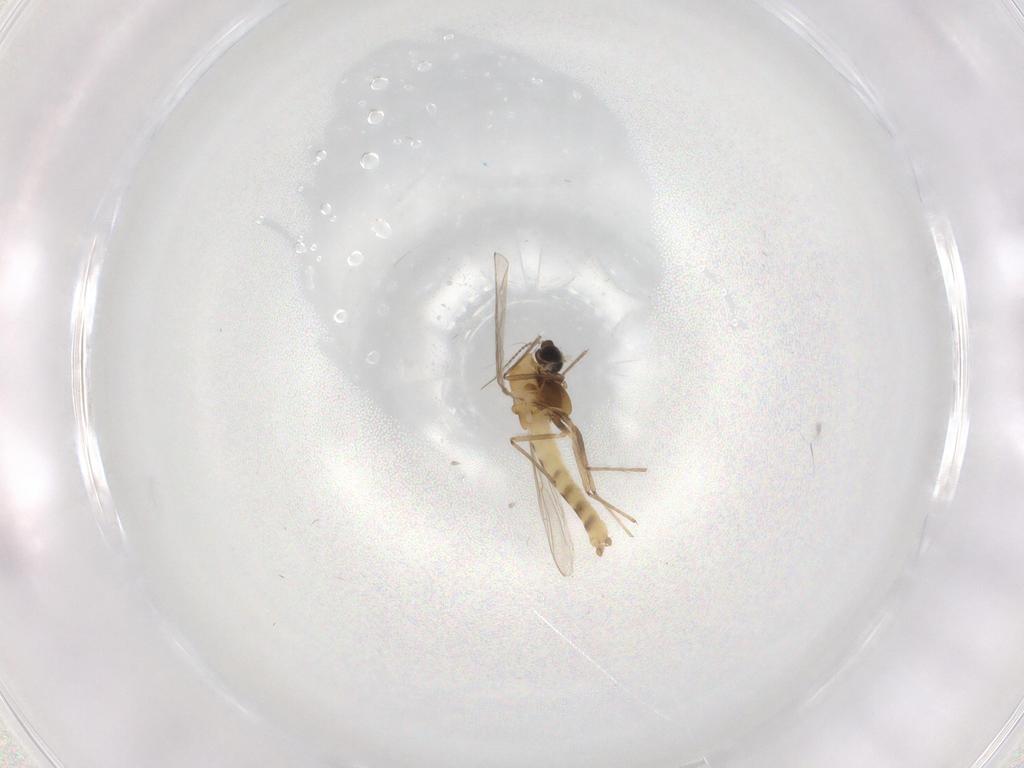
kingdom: Animalia
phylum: Arthropoda
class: Insecta
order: Diptera
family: Chironomidae
